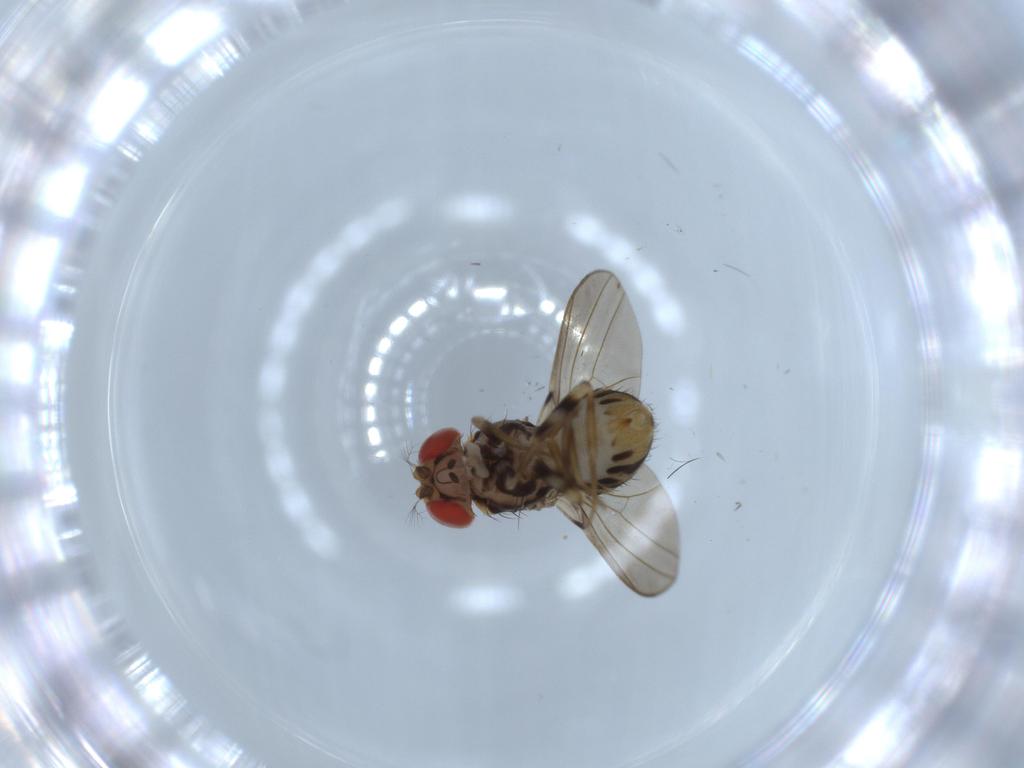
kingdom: Animalia
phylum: Arthropoda
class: Insecta
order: Diptera
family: Drosophilidae
